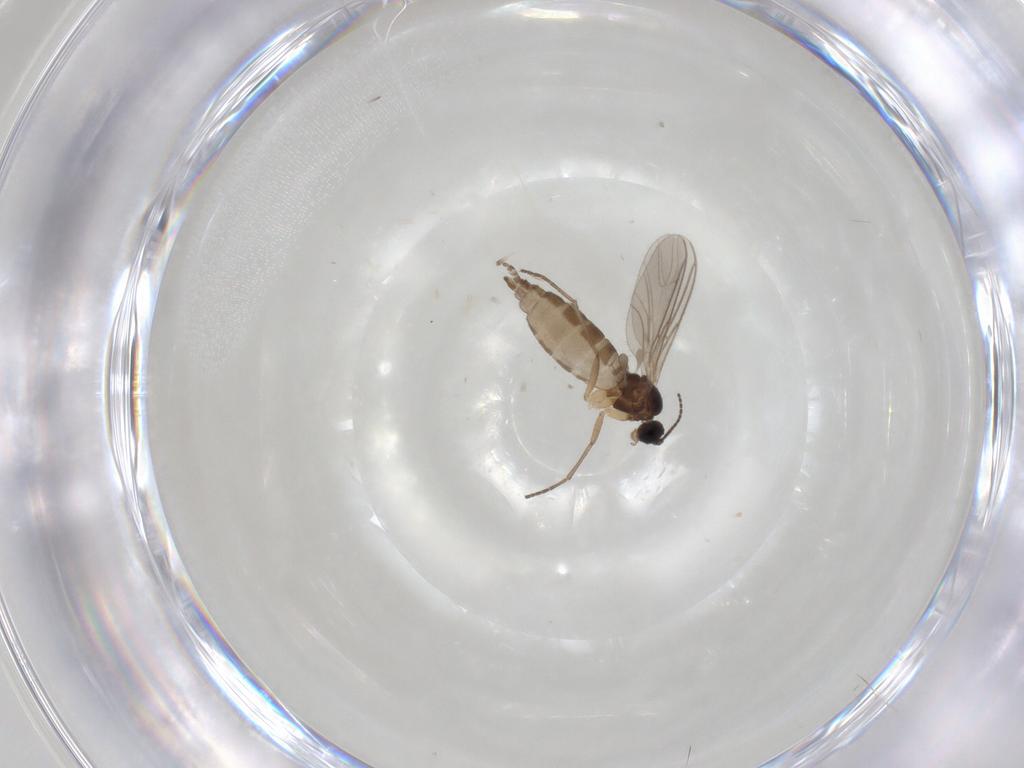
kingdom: Animalia
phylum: Arthropoda
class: Insecta
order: Diptera
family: Sciaridae
